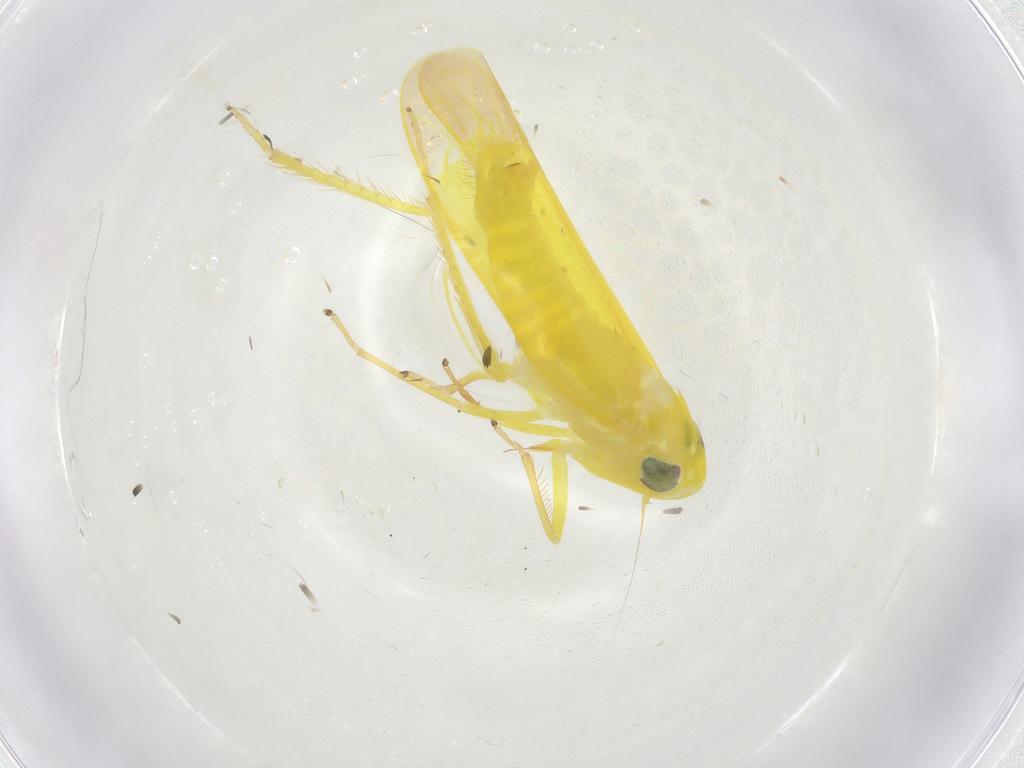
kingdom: Animalia
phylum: Arthropoda
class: Insecta
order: Hemiptera
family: Cicadellidae
